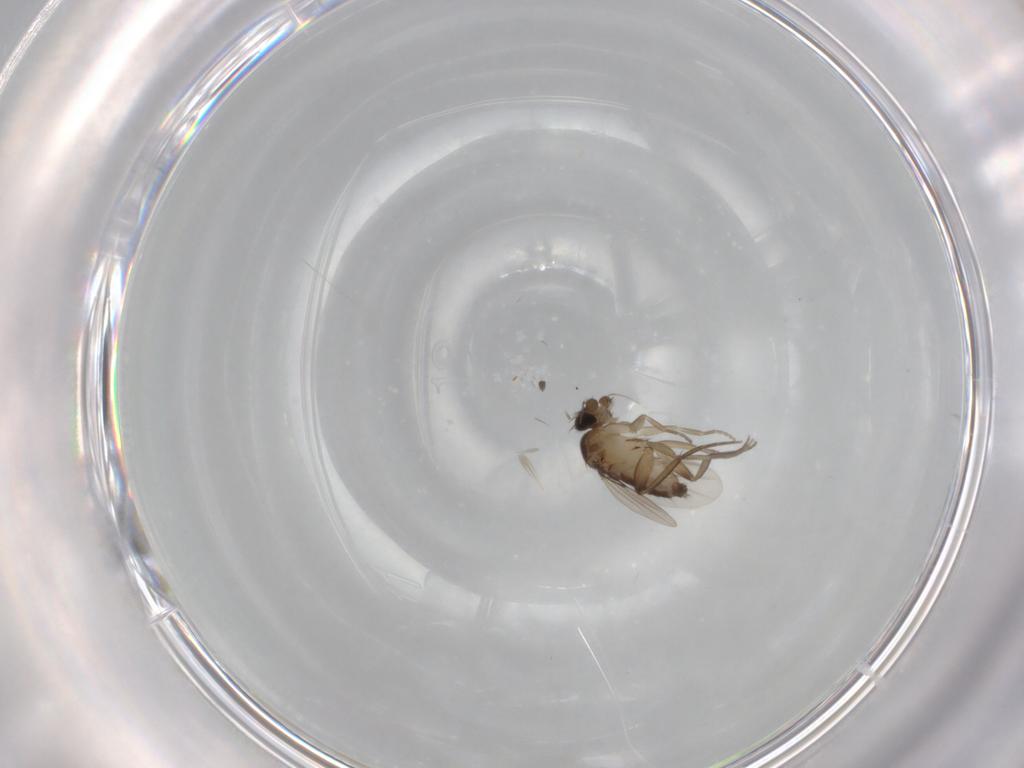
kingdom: Animalia
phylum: Arthropoda
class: Insecta
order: Diptera
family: Phoridae
